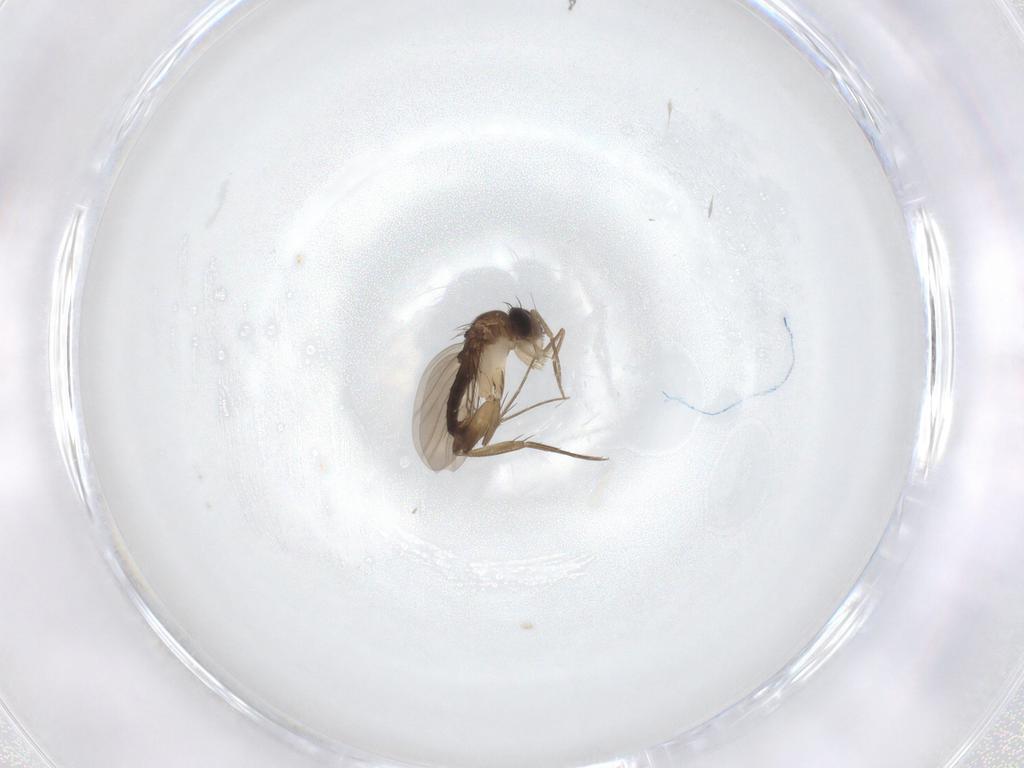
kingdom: Animalia
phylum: Arthropoda
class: Insecta
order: Diptera
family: Phoridae
